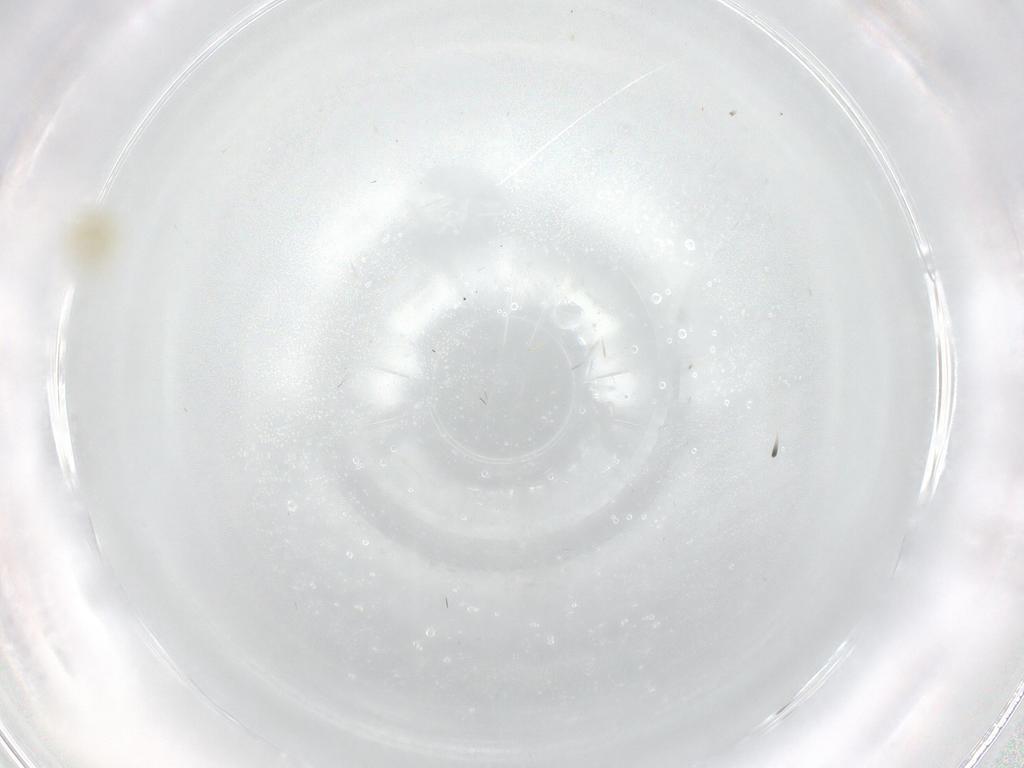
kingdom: Animalia
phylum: Arthropoda
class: Insecta
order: Hemiptera
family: Aleyrodidae
